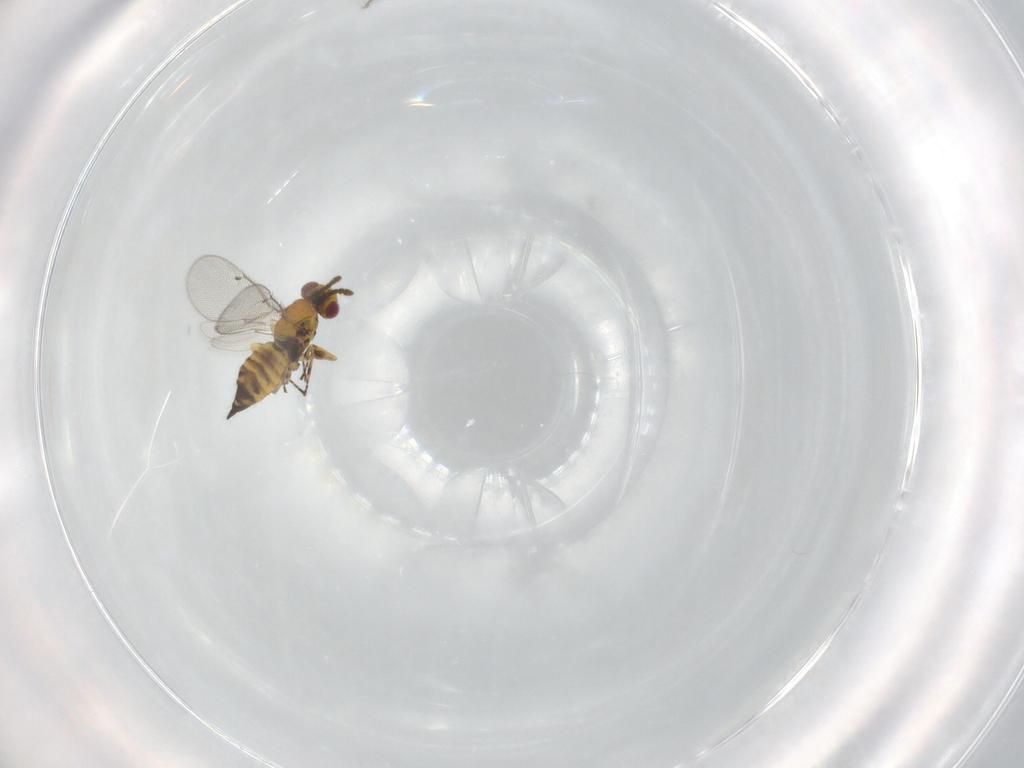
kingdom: Animalia
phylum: Arthropoda
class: Insecta
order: Hymenoptera
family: Eulophidae
